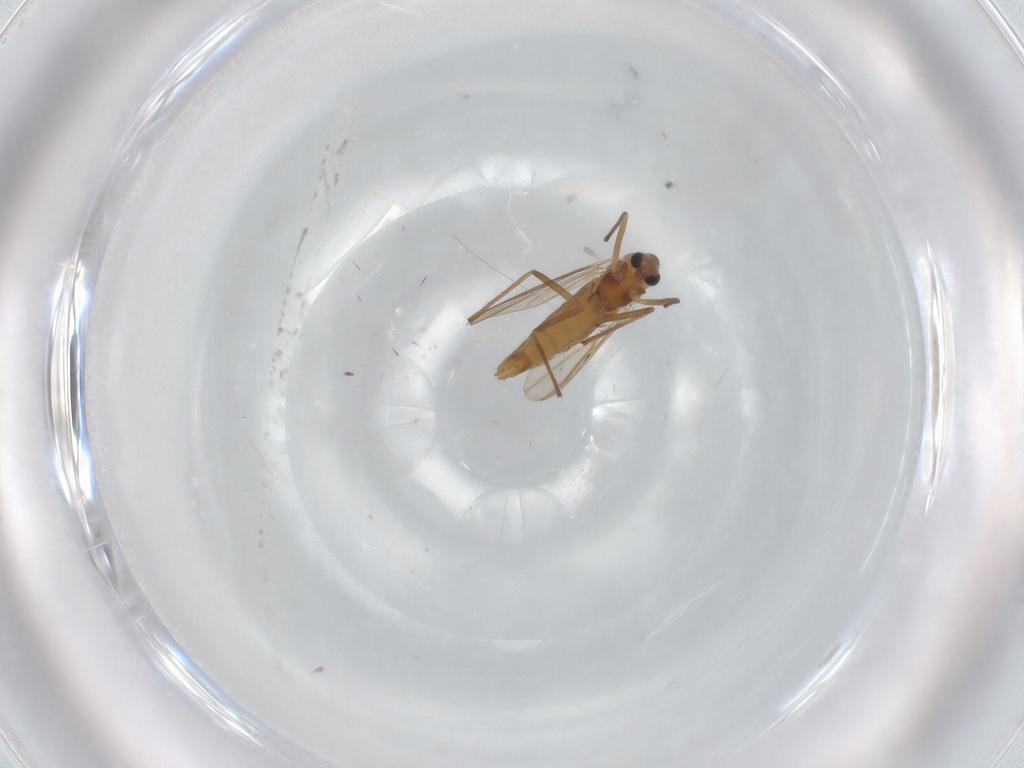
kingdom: Animalia
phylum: Arthropoda
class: Insecta
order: Diptera
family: Chironomidae
